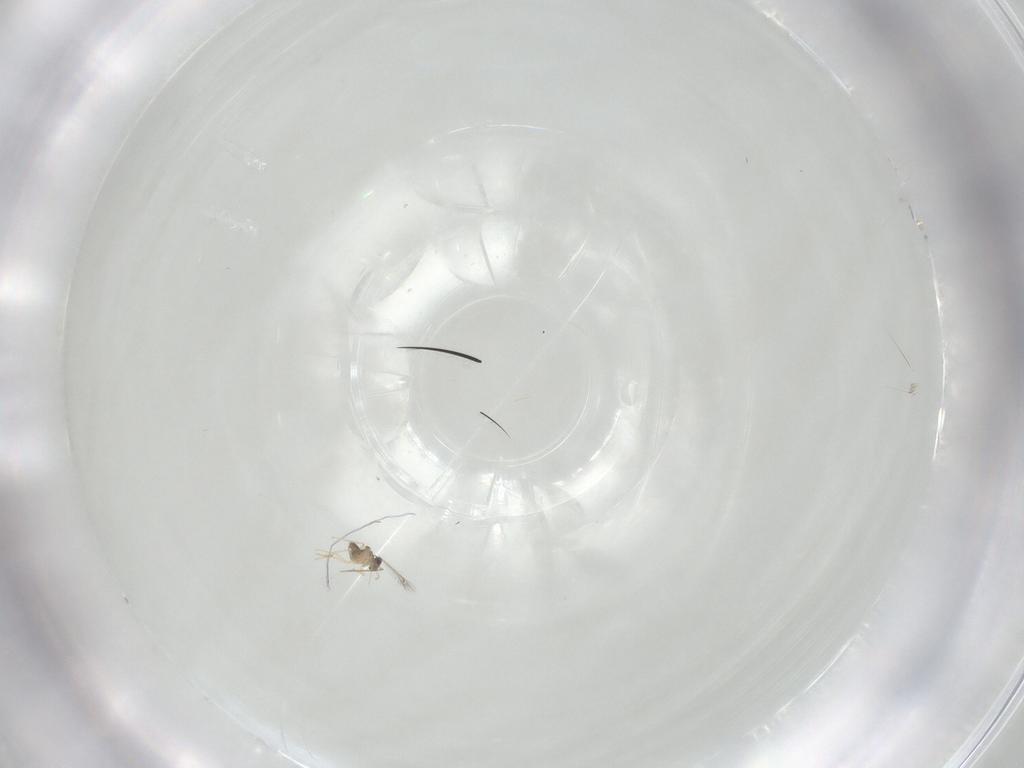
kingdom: Animalia
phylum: Arthropoda
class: Insecta
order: Hymenoptera
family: Mymaridae
